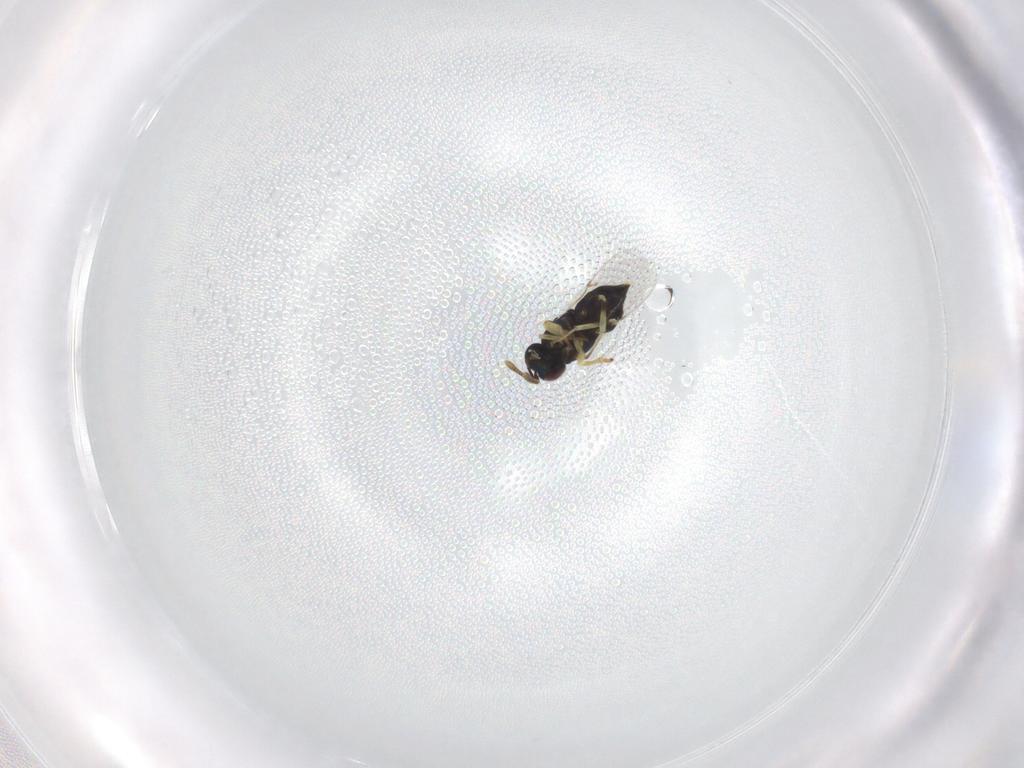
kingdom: Animalia
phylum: Arthropoda
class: Insecta
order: Hymenoptera
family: Encyrtidae
